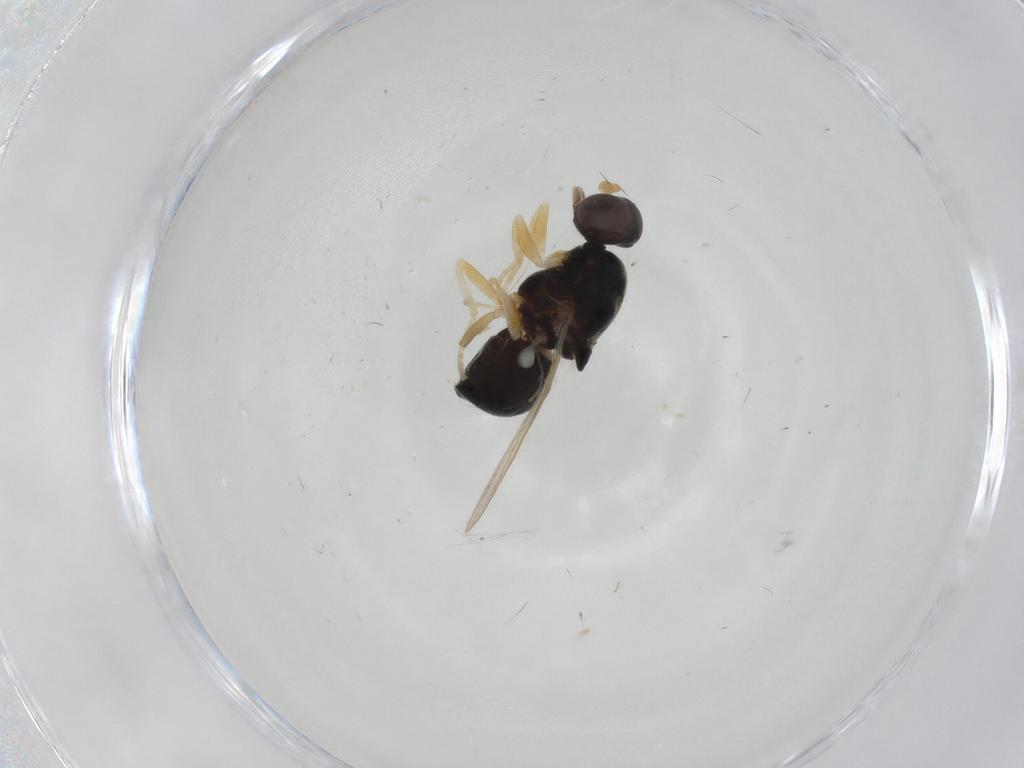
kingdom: Animalia
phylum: Arthropoda
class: Insecta
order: Diptera
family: Stratiomyidae
